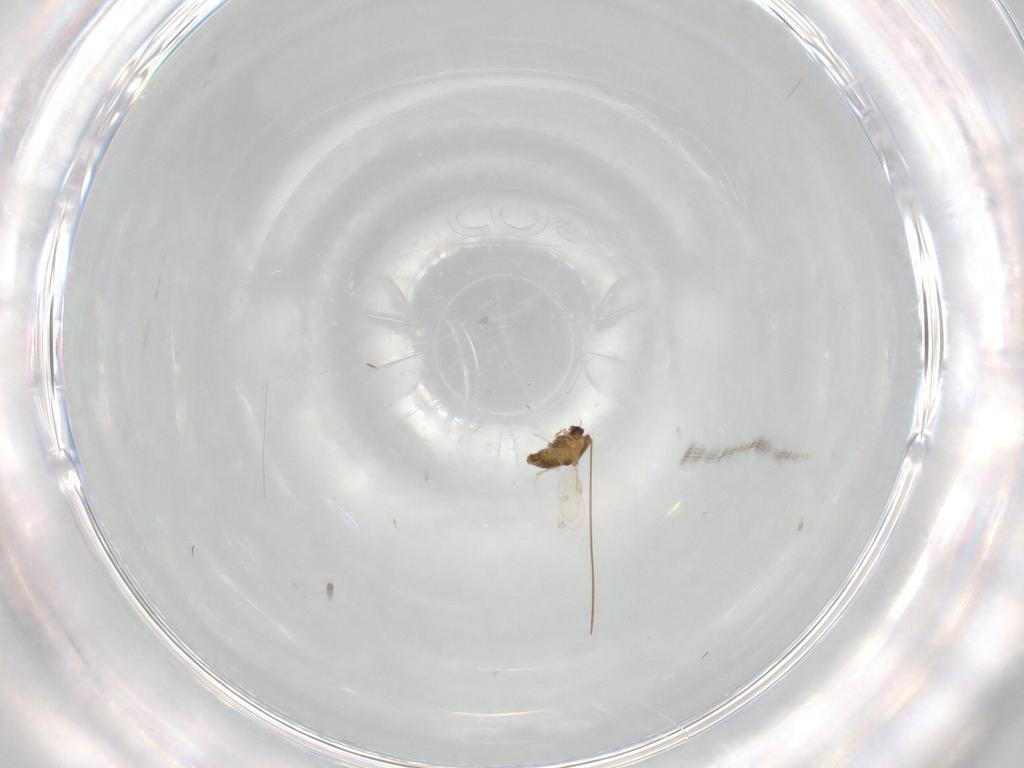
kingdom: Animalia
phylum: Arthropoda
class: Insecta
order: Diptera
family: Chironomidae
